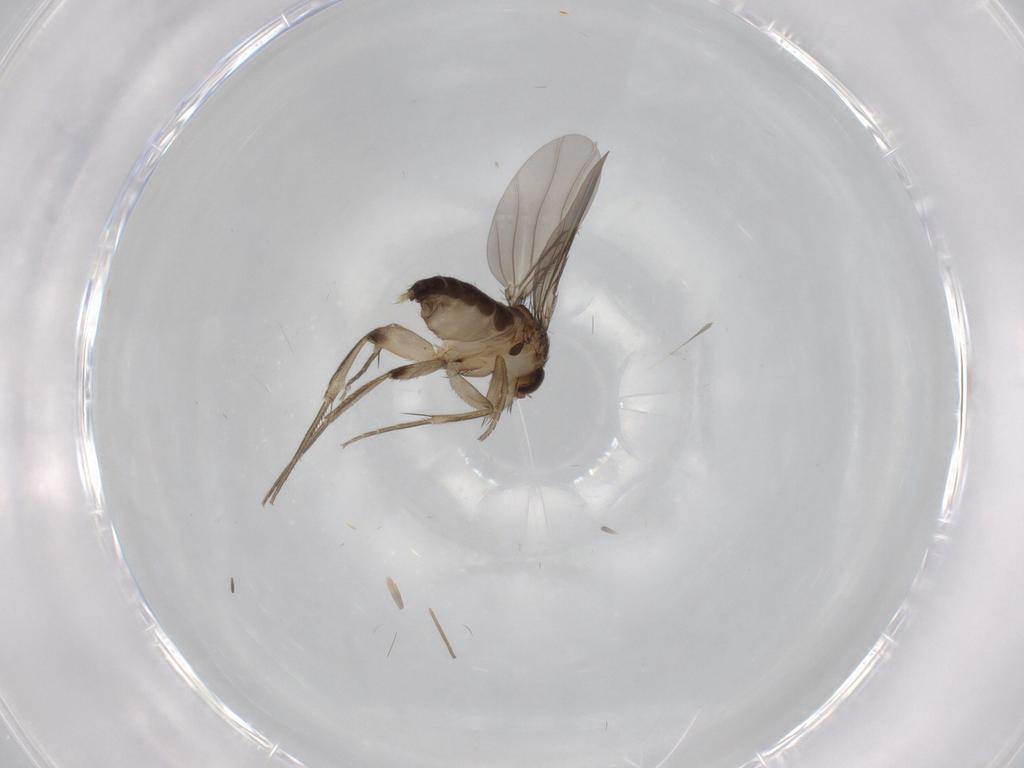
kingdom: Animalia
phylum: Arthropoda
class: Insecta
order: Diptera
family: Phoridae
